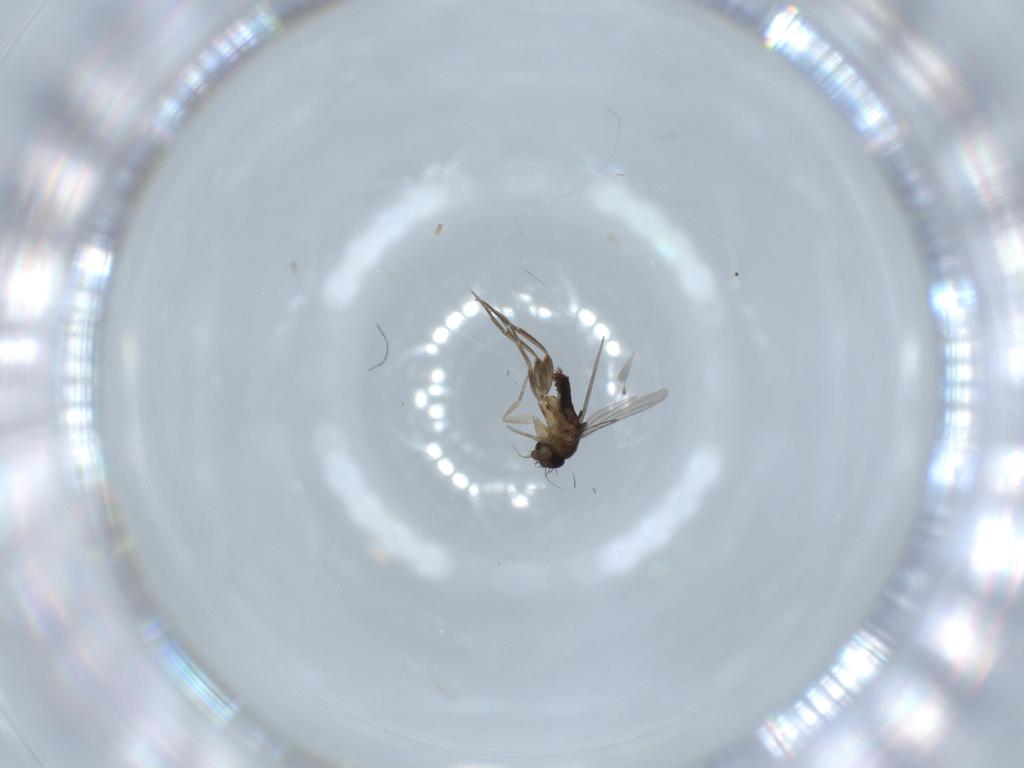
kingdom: Animalia
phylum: Arthropoda
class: Insecta
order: Diptera
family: Phoridae
